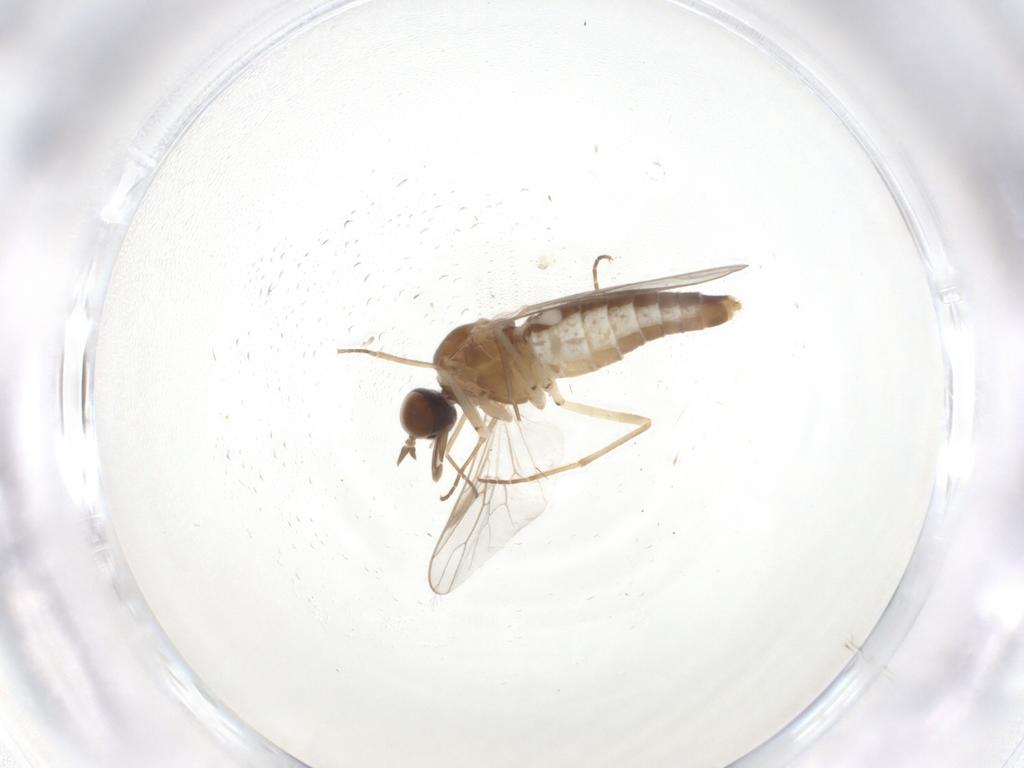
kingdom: Animalia
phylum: Arthropoda
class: Insecta
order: Diptera
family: Scenopinidae
